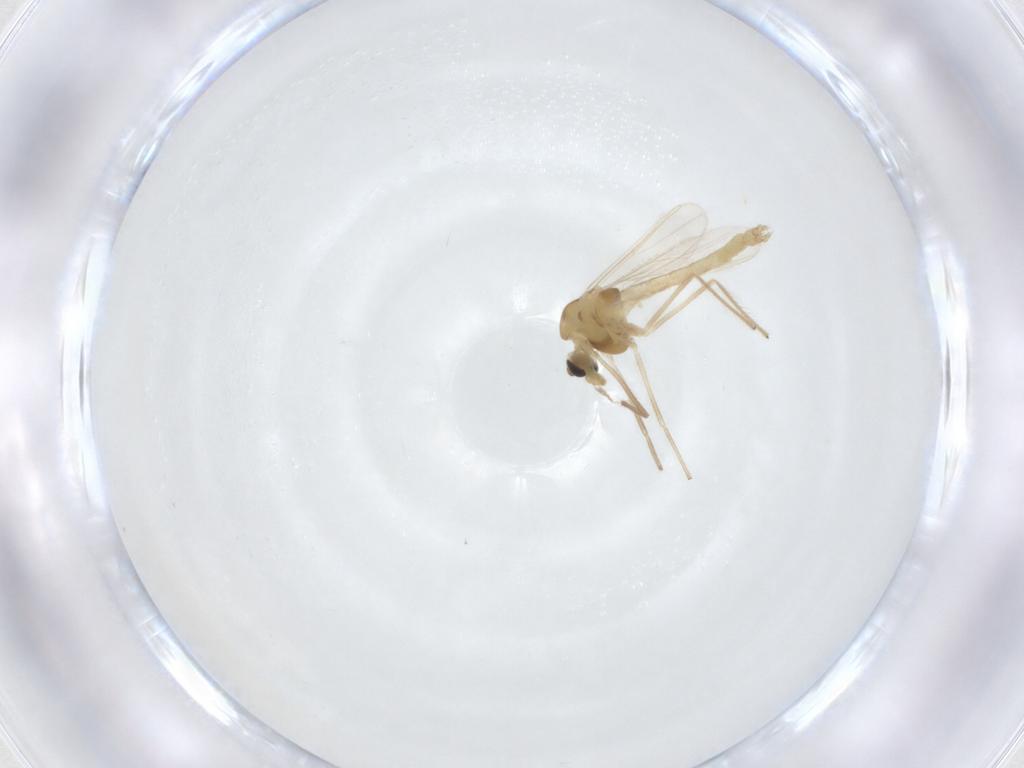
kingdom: Animalia
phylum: Arthropoda
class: Insecta
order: Diptera
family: Chironomidae
